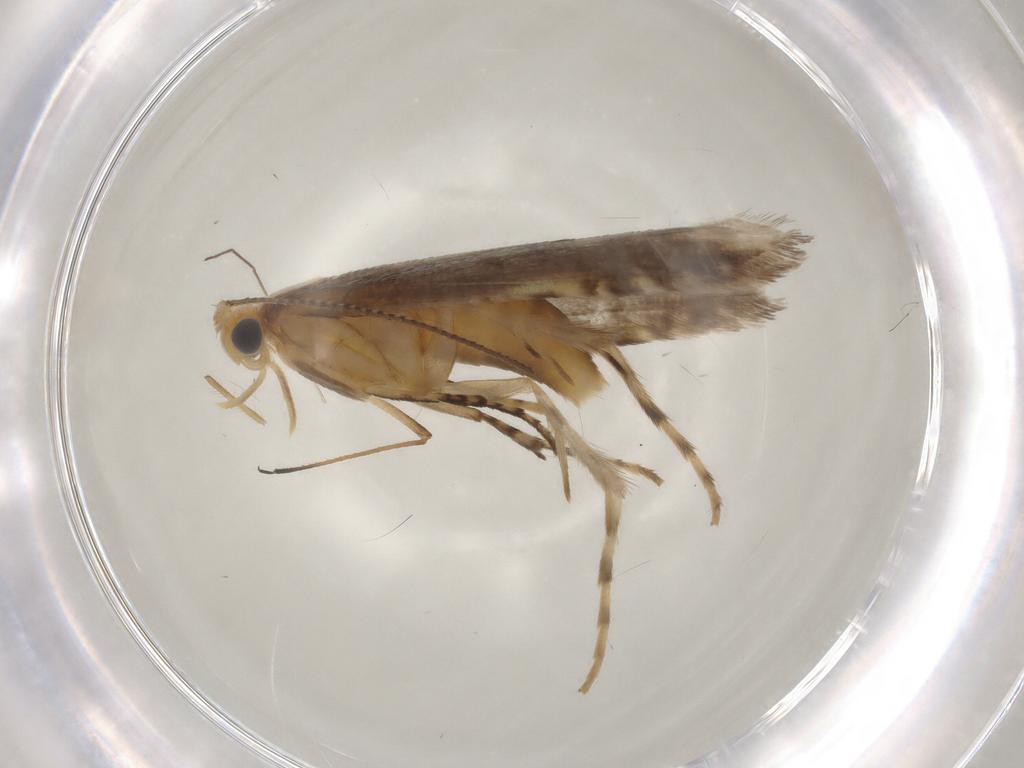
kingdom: Animalia
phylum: Arthropoda
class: Insecta
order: Lepidoptera
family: Argyresthiidae
